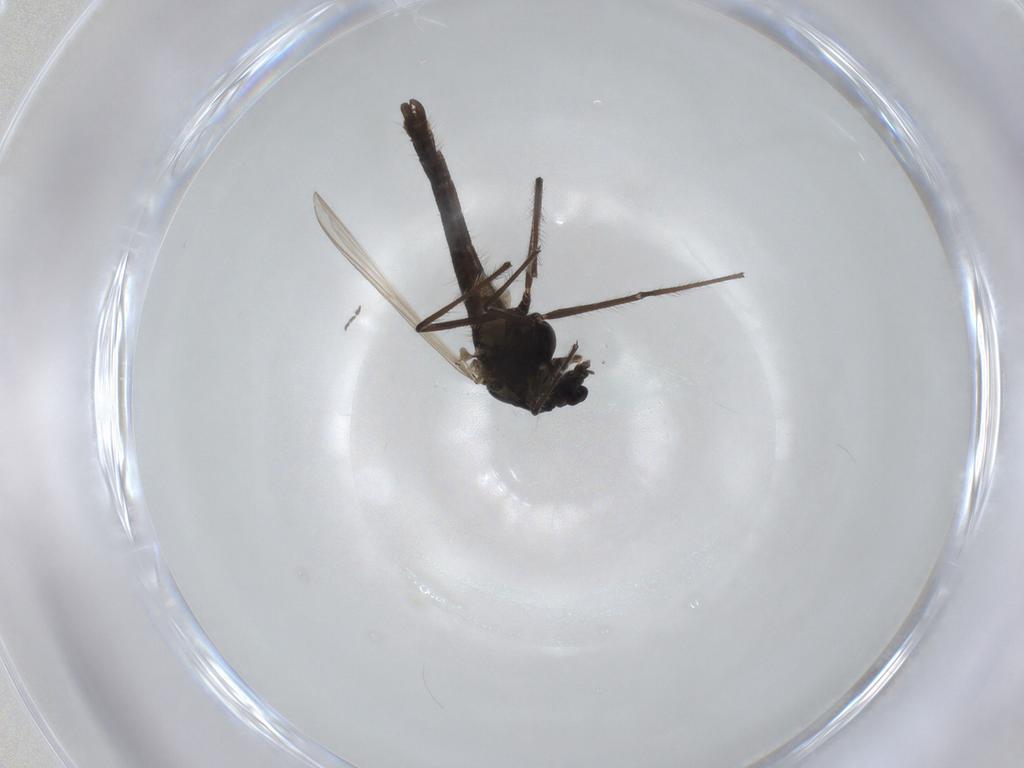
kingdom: Animalia
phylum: Arthropoda
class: Insecta
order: Diptera
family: Chironomidae
